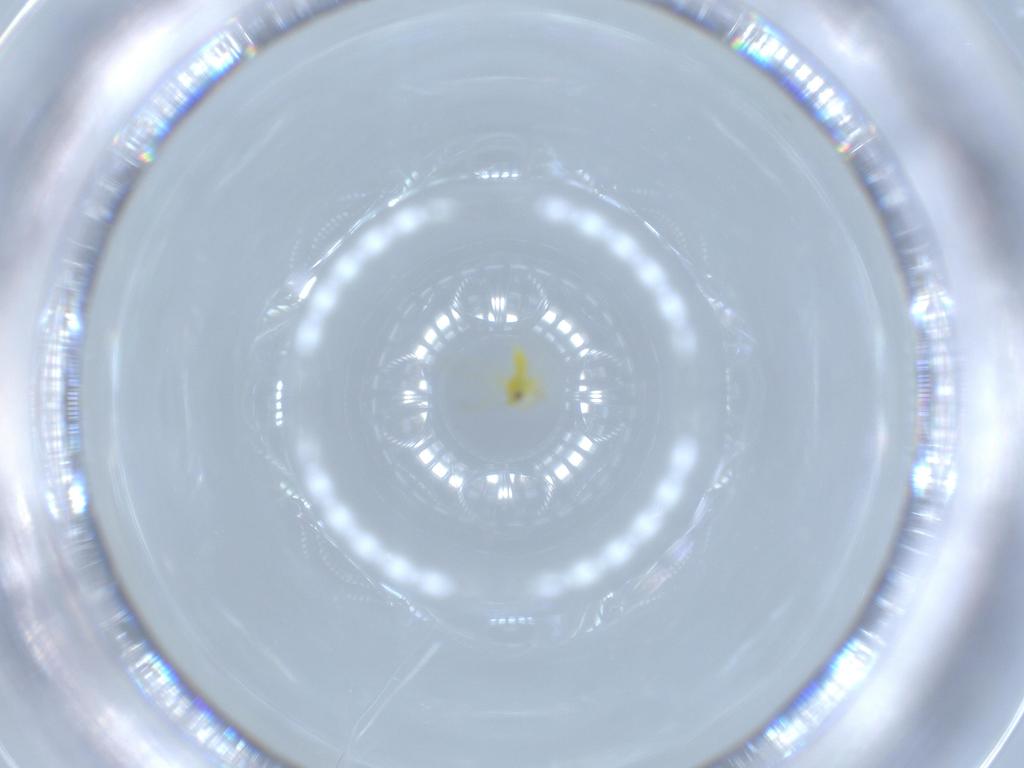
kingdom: Animalia
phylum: Arthropoda
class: Insecta
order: Hemiptera
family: Aleyrodidae
